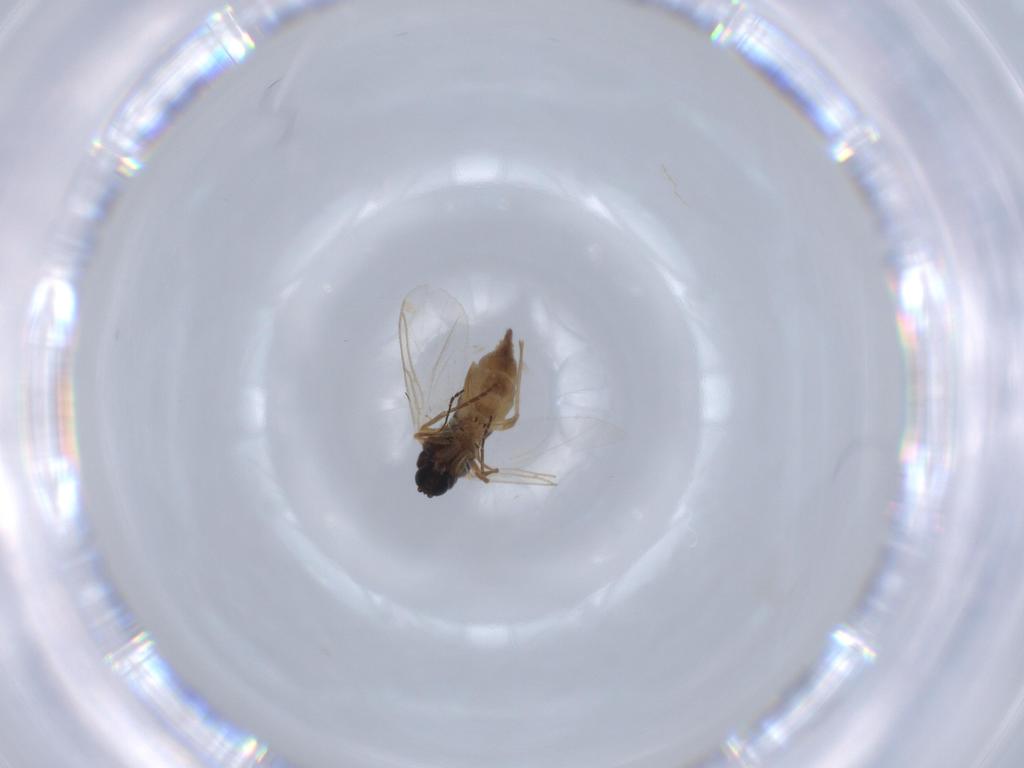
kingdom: Animalia
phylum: Arthropoda
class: Insecta
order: Diptera
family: Sciaridae
